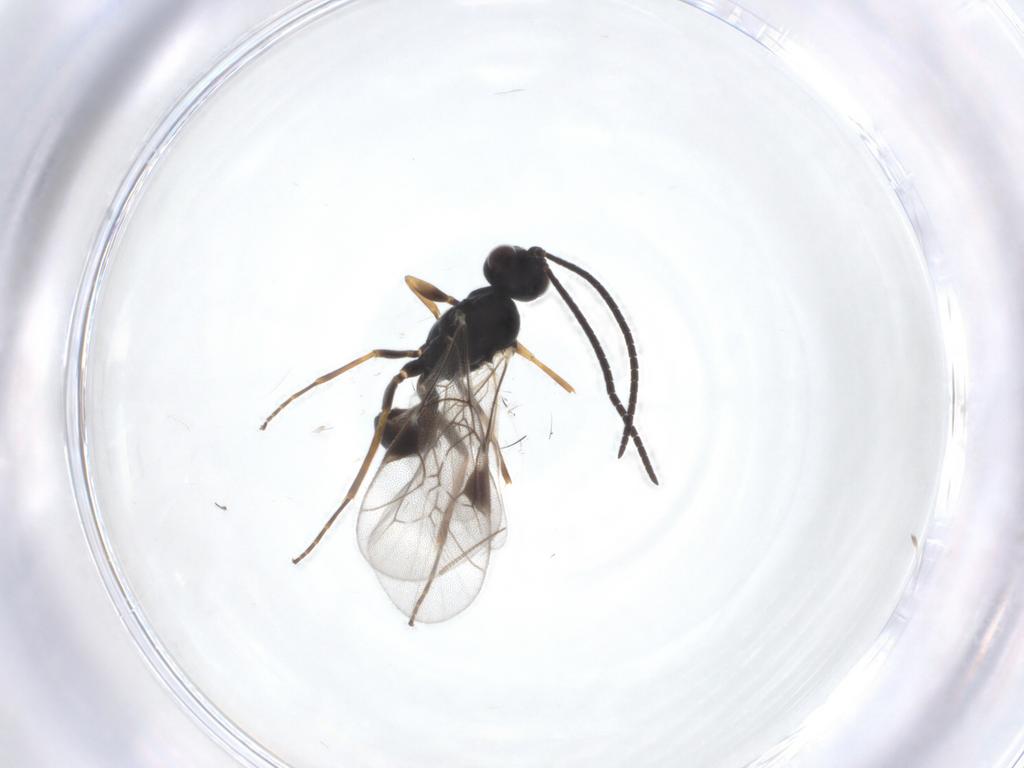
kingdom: Animalia
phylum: Arthropoda
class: Insecta
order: Hymenoptera
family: Ichneumonidae
